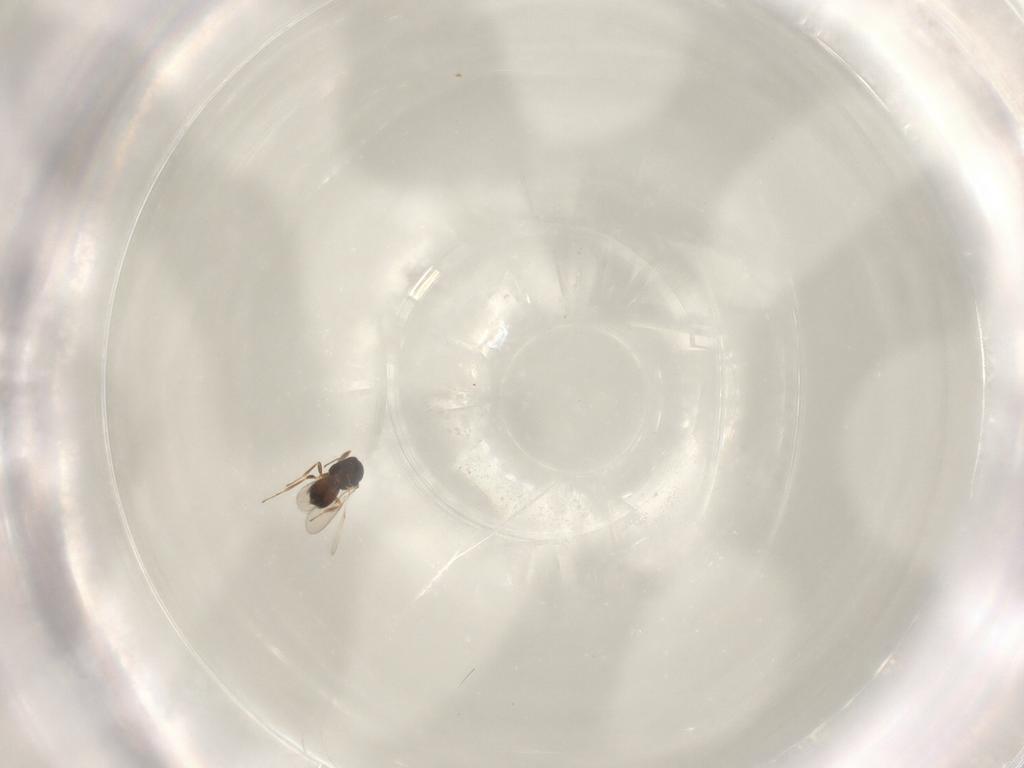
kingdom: Animalia
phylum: Arthropoda
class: Insecta
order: Hymenoptera
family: Scelionidae
